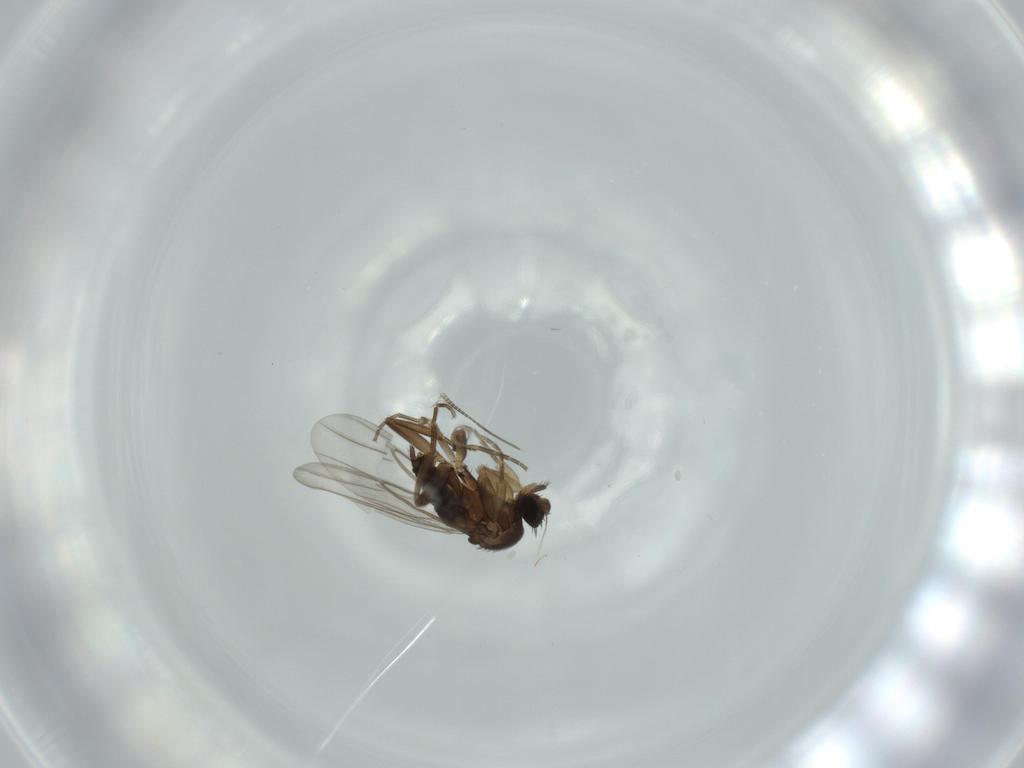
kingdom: Animalia
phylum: Arthropoda
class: Insecta
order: Diptera
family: Phoridae
